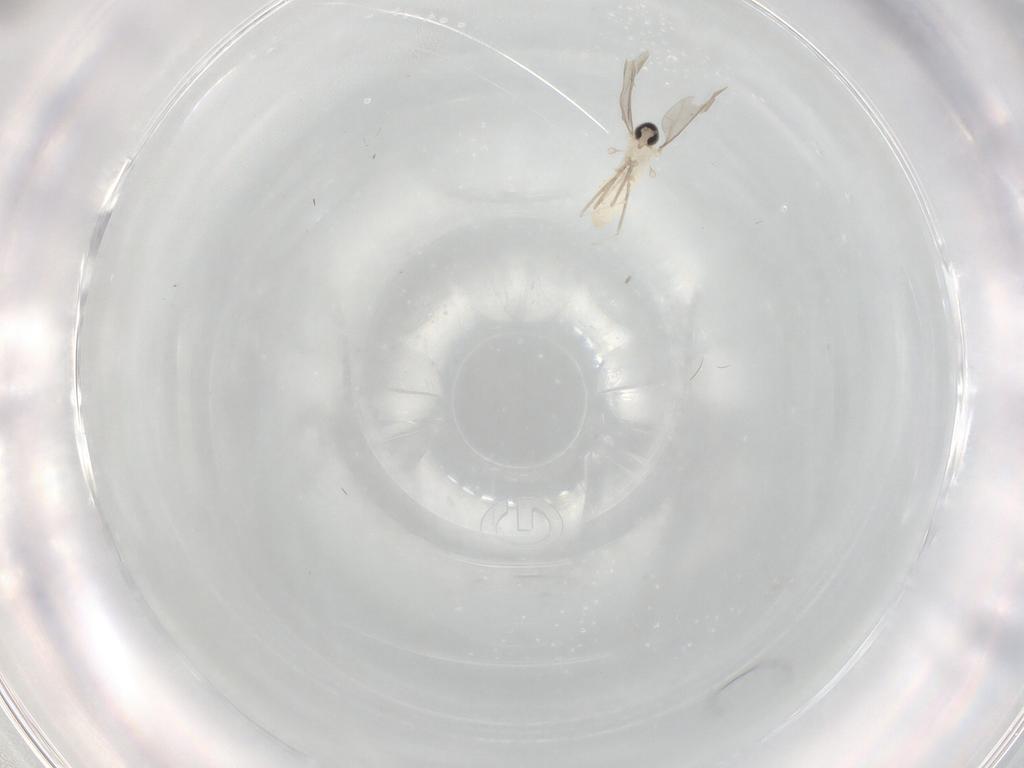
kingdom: Animalia
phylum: Arthropoda
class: Insecta
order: Diptera
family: Cecidomyiidae
